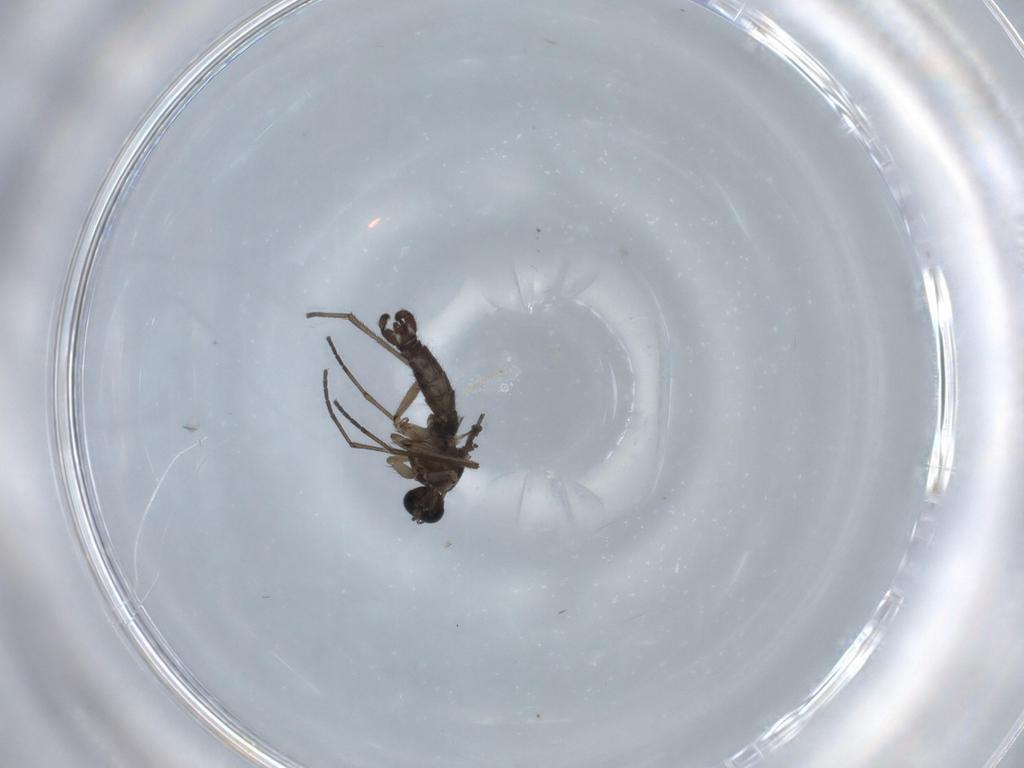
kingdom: Animalia
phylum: Arthropoda
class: Insecta
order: Diptera
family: Sciaridae
